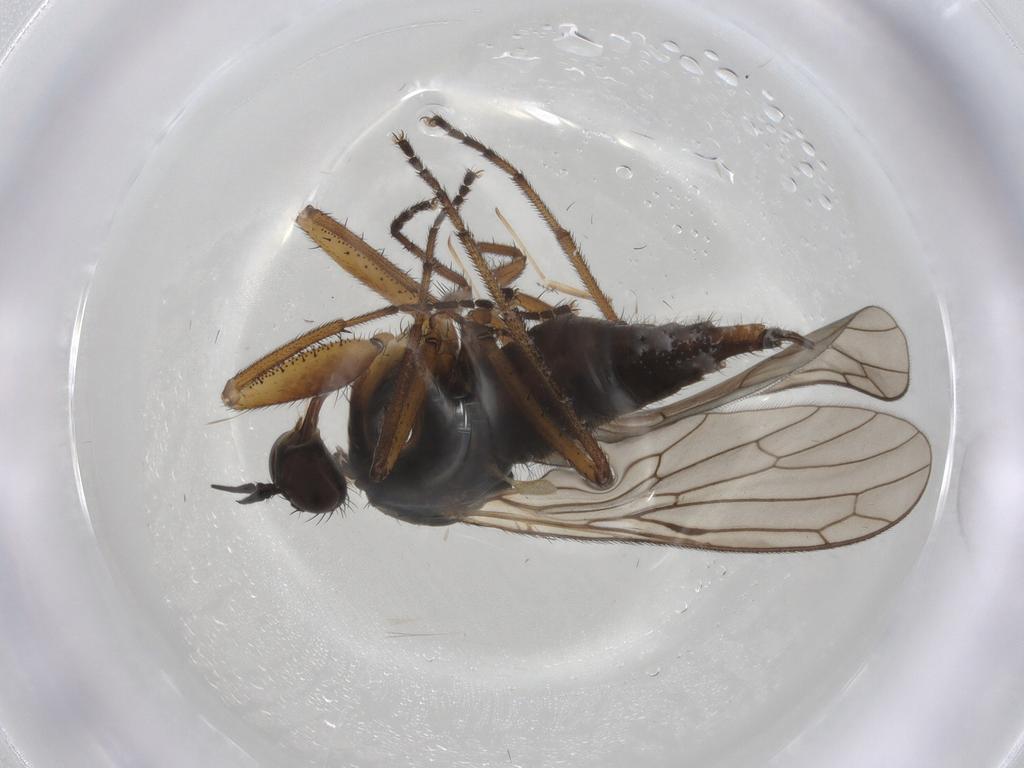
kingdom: Animalia
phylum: Arthropoda
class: Insecta
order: Diptera
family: Chironomidae
